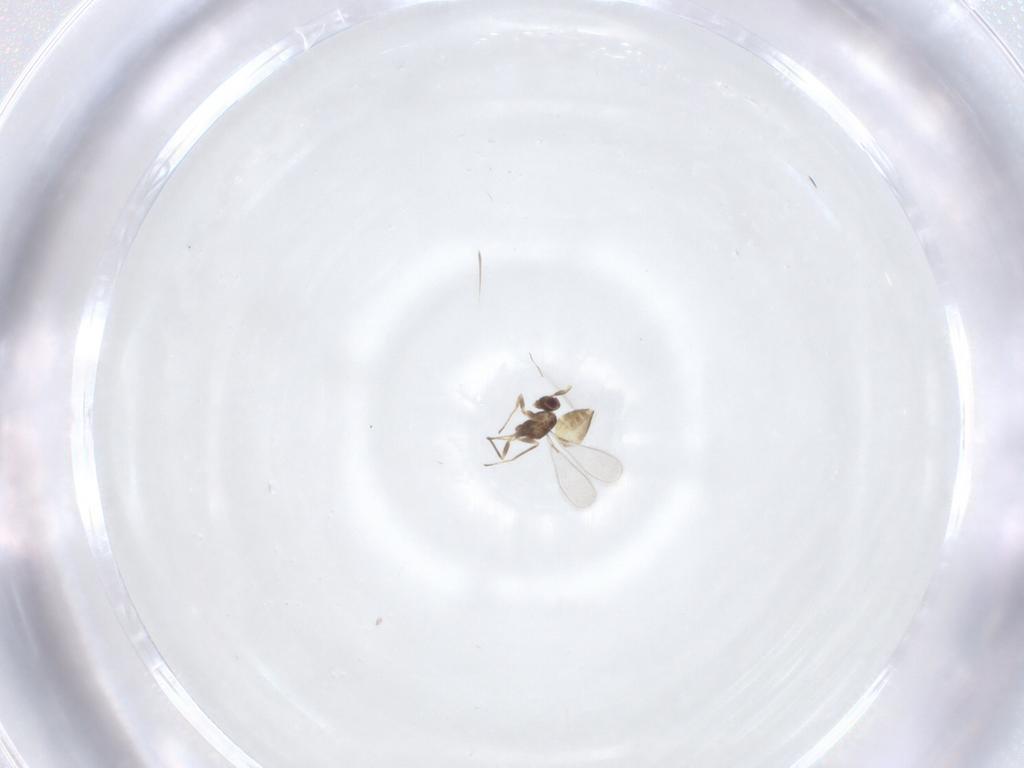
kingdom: Animalia
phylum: Arthropoda
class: Insecta
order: Hymenoptera
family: Mymaridae
